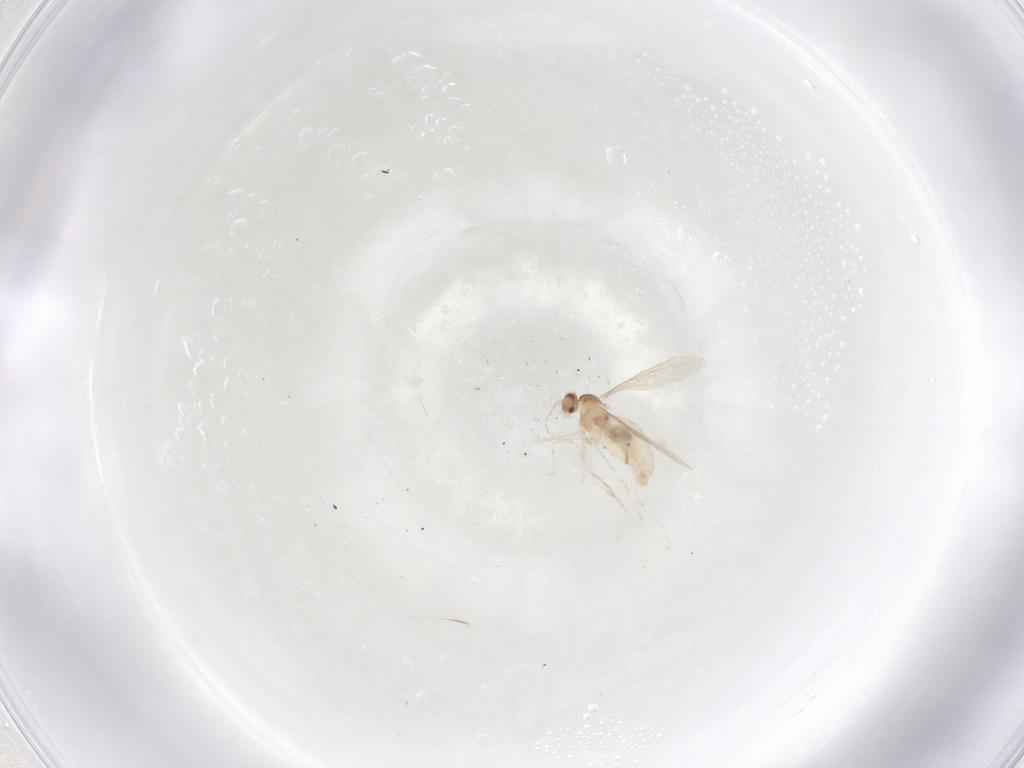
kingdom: Animalia
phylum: Arthropoda
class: Insecta
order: Diptera
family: Cecidomyiidae
